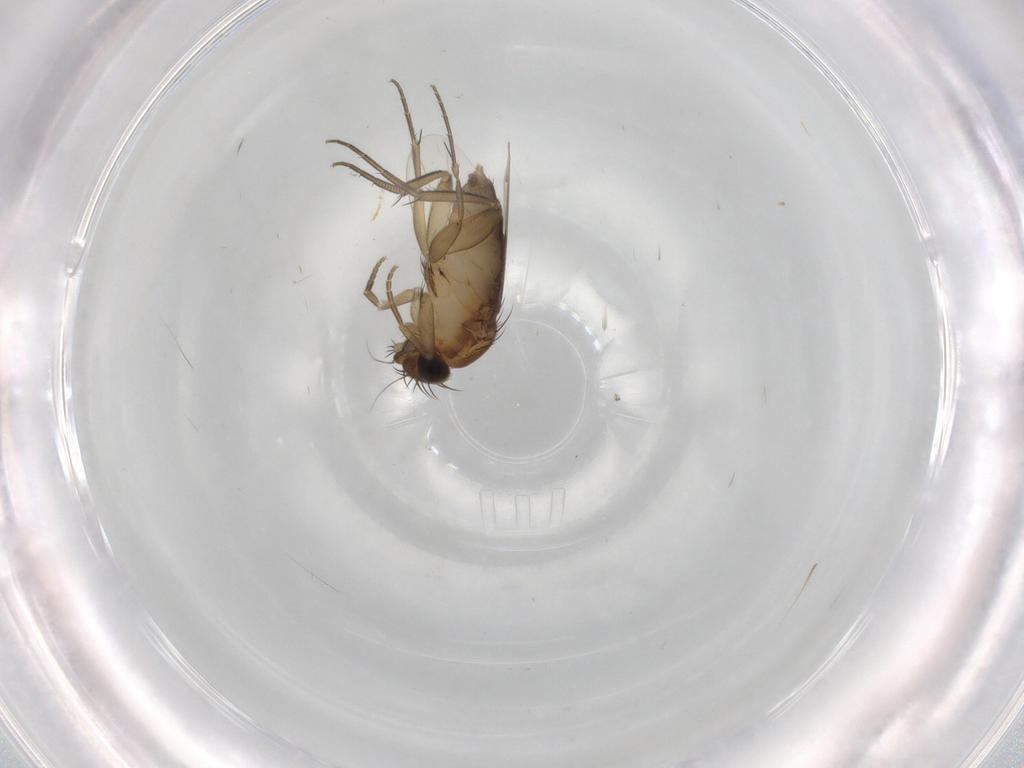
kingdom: Animalia
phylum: Arthropoda
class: Insecta
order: Diptera
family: Phoridae
